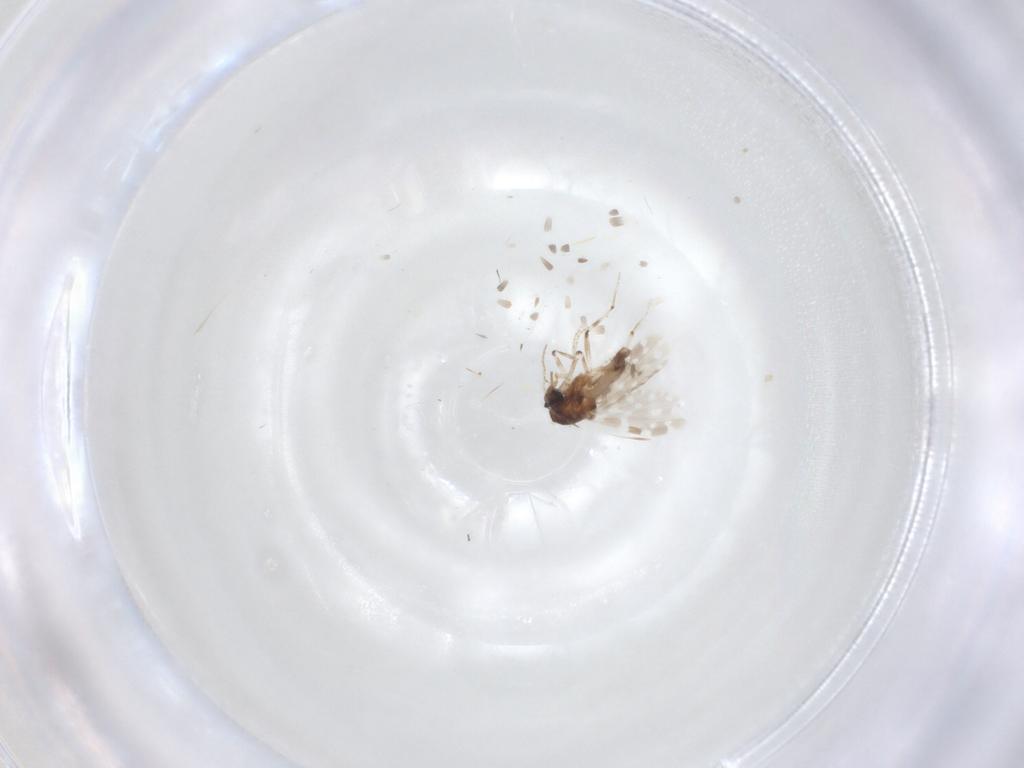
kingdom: Animalia
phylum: Arthropoda
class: Insecta
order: Diptera
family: Ceratopogonidae
